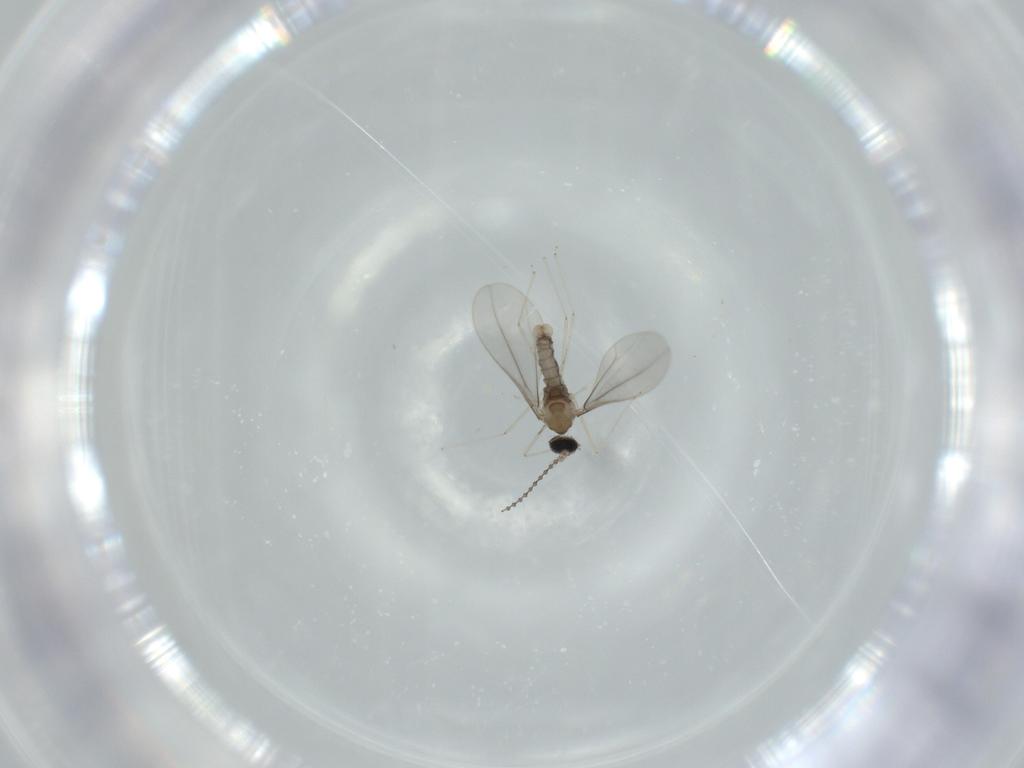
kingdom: Animalia
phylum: Arthropoda
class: Insecta
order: Diptera
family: Cecidomyiidae
